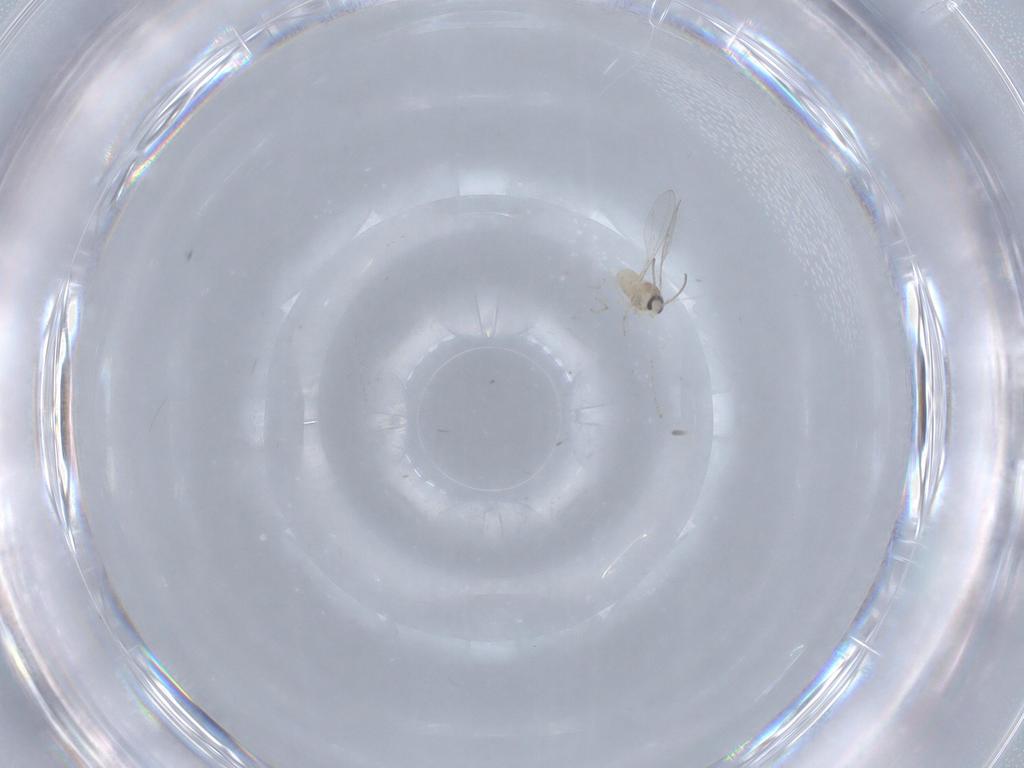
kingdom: Animalia
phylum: Arthropoda
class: Insecta
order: Diptera
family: Cecidomyiidae
